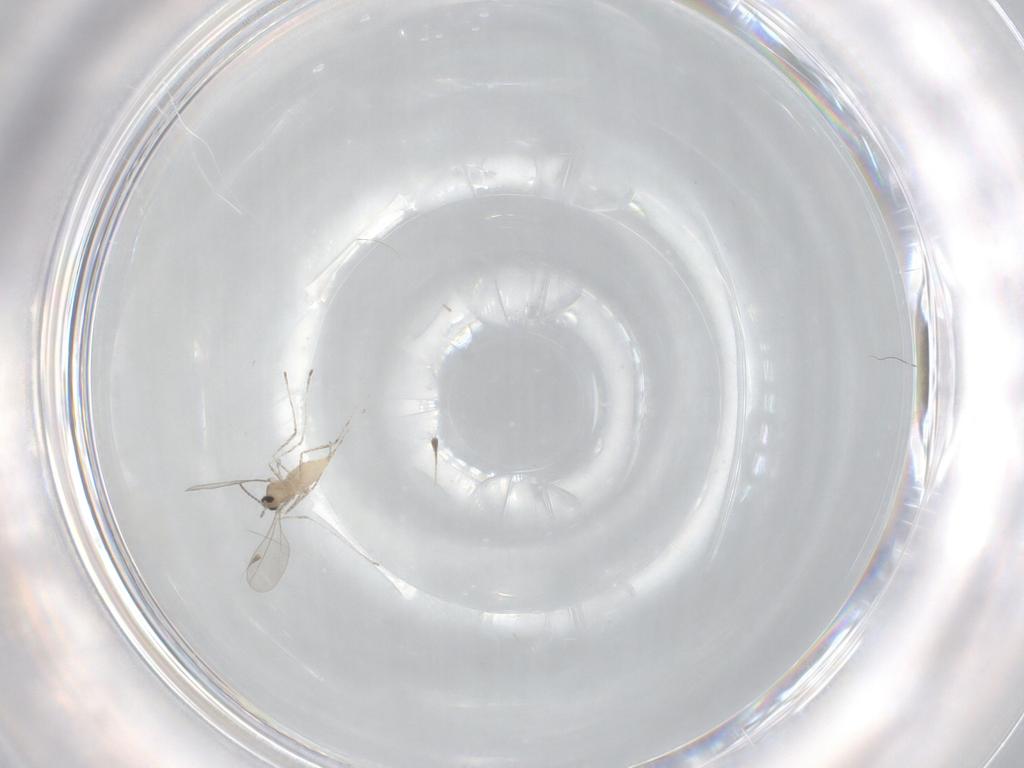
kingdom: Animalia
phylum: Arthropoda
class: Insecta
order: Diptera
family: Cecidomyiidae
